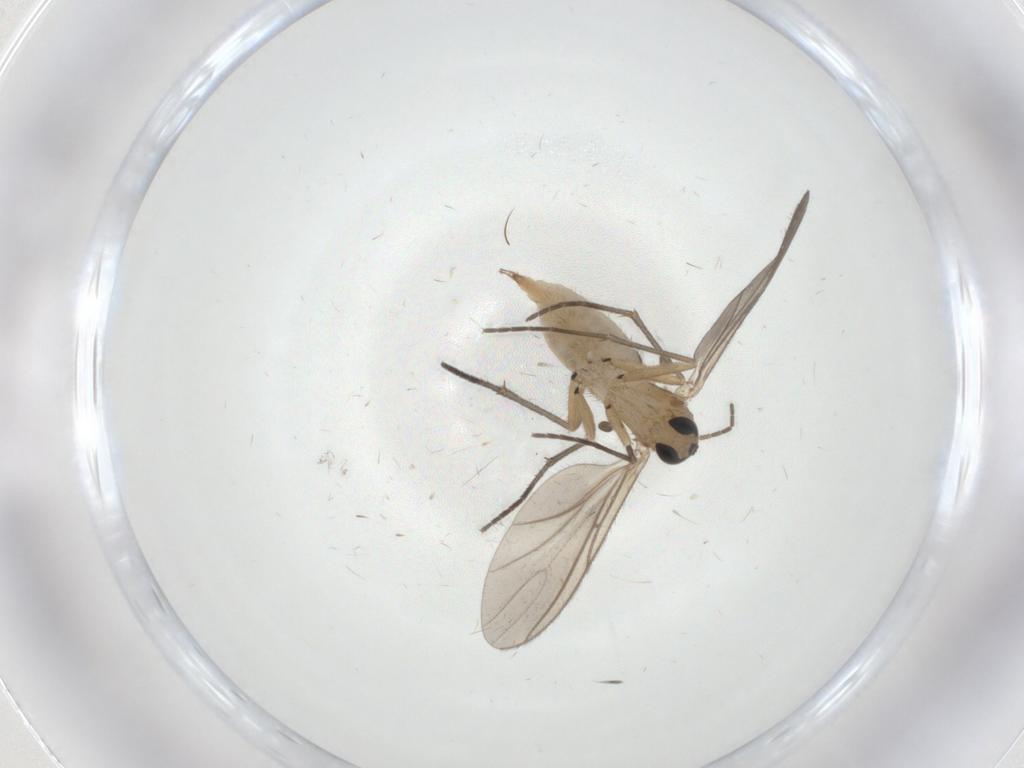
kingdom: Animalia
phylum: Arthropoda
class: Insecta
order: Diptera
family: Sciaridae
